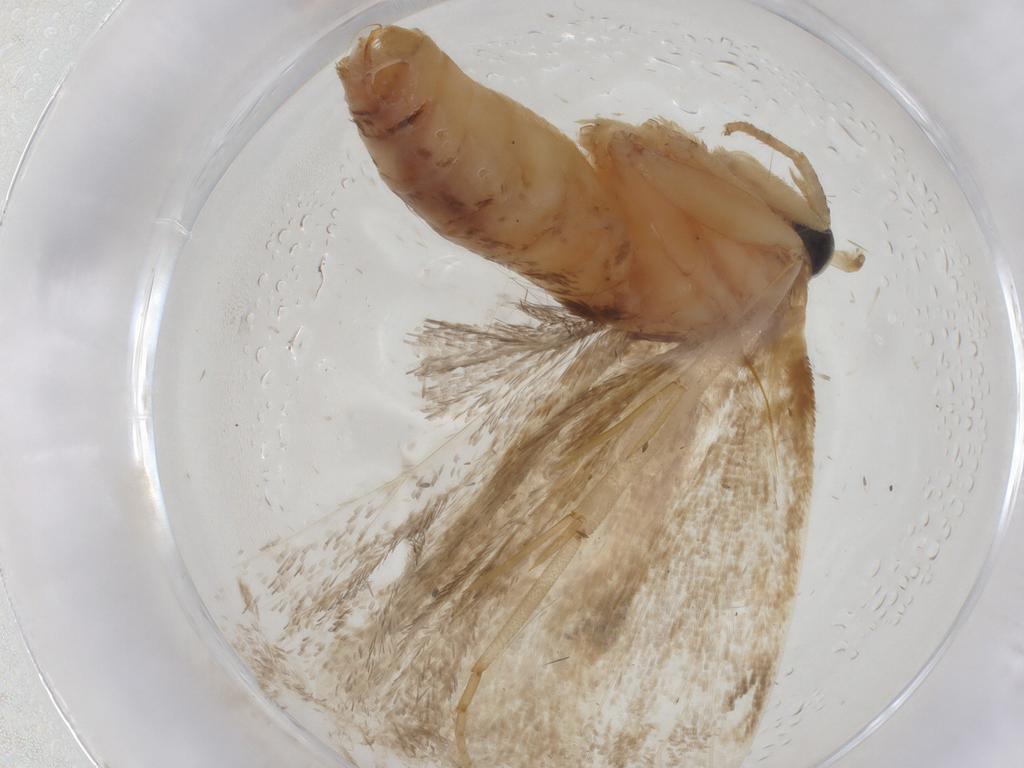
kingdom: Animalia
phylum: Arthropoda
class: Insecta
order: Lepidoptera
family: Depressariidae
